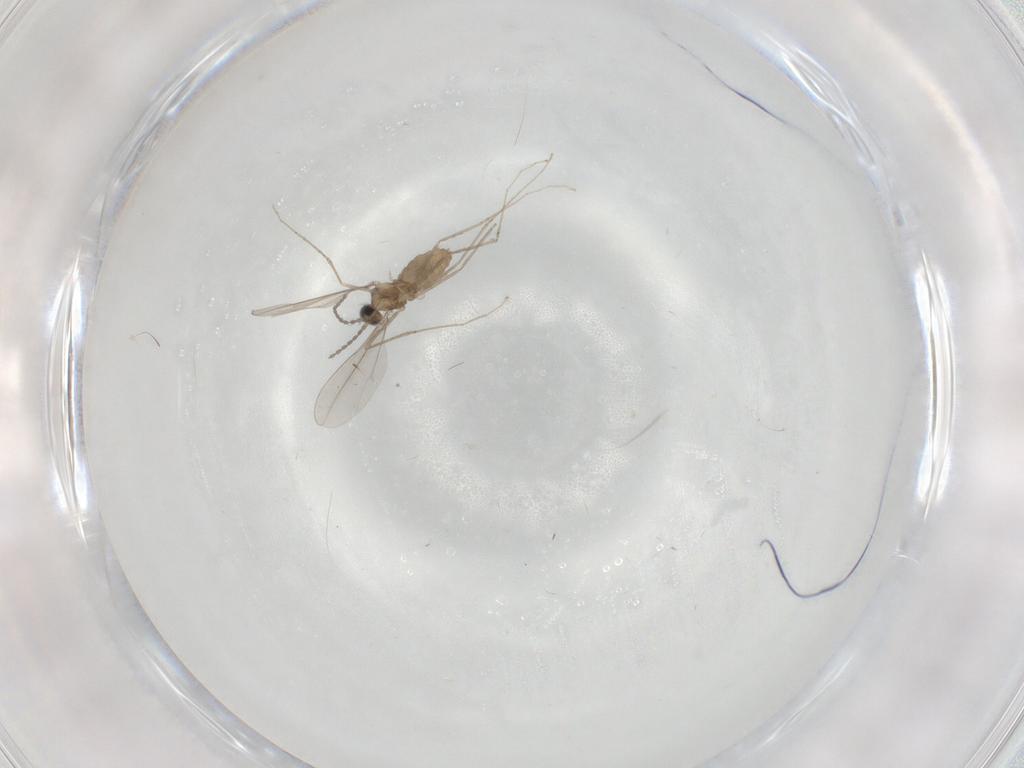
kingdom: Animalia
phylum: Arthropoda
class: Insecta
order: Diptera
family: Cecidomyiidae
